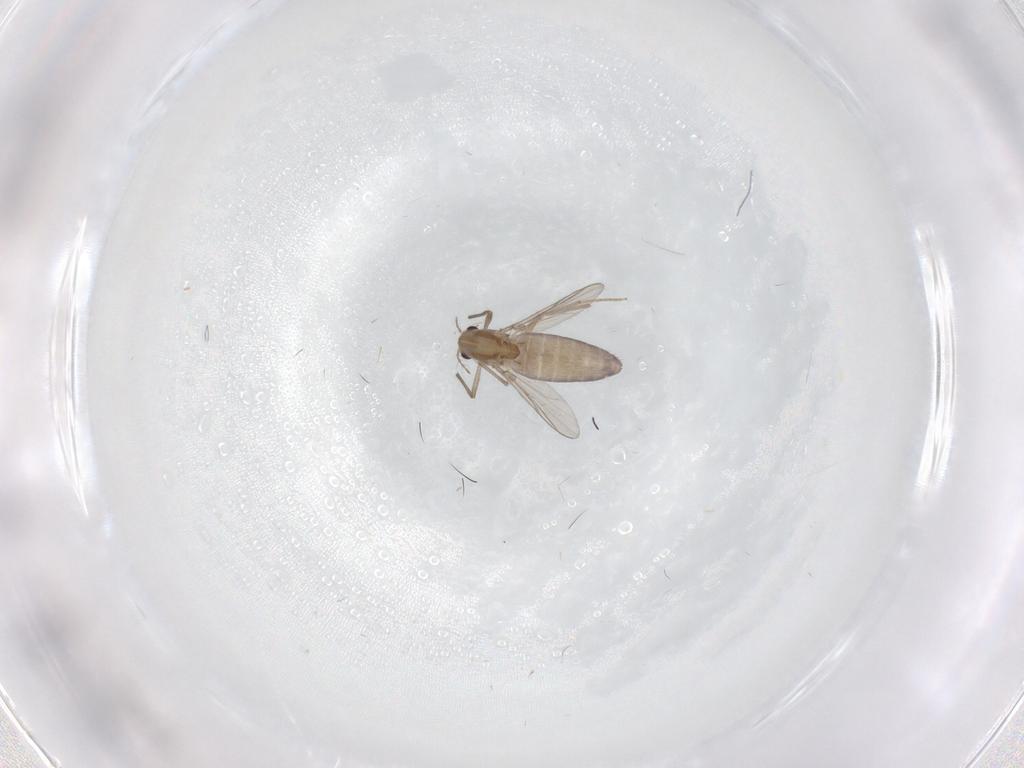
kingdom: Animalia
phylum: Arthropoda
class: Insecta
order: Diptera
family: Chironomidae
